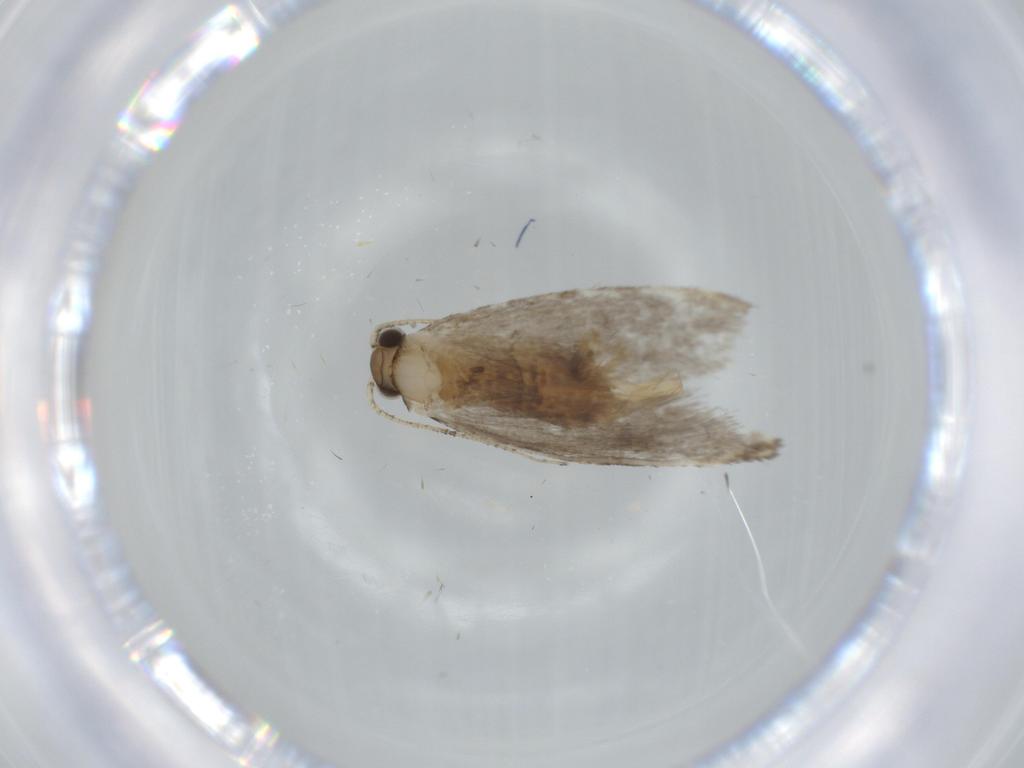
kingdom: Animalia
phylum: Arthropoda
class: Insecta
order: Lepidoptera
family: Tineidae
